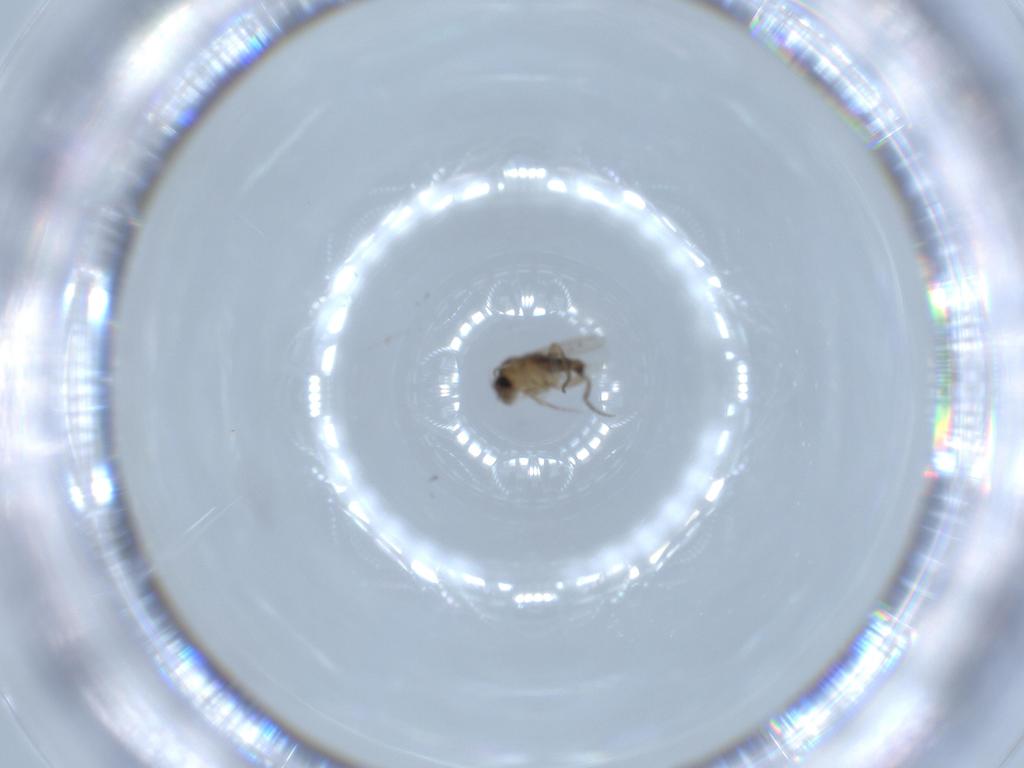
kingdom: Animalia
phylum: Arthropoda
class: Insecta
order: Diptera
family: Phoridae
